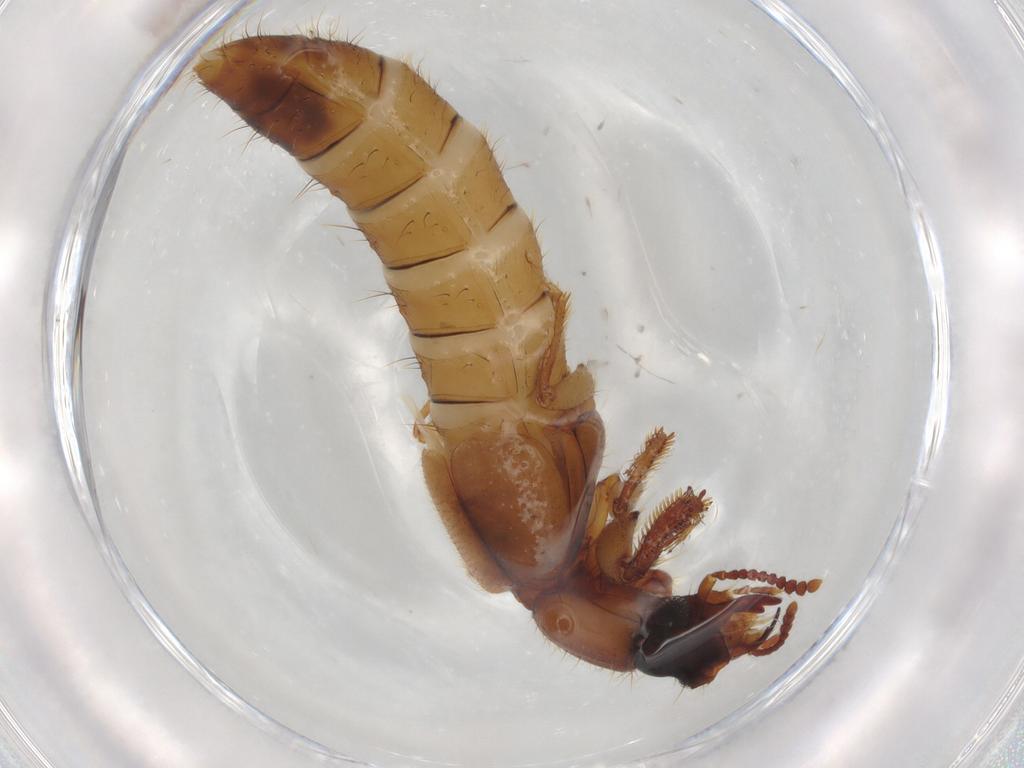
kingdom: Animalia
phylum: Arthropoda
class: Insecta
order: Coleoptera
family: Staphylinidae
